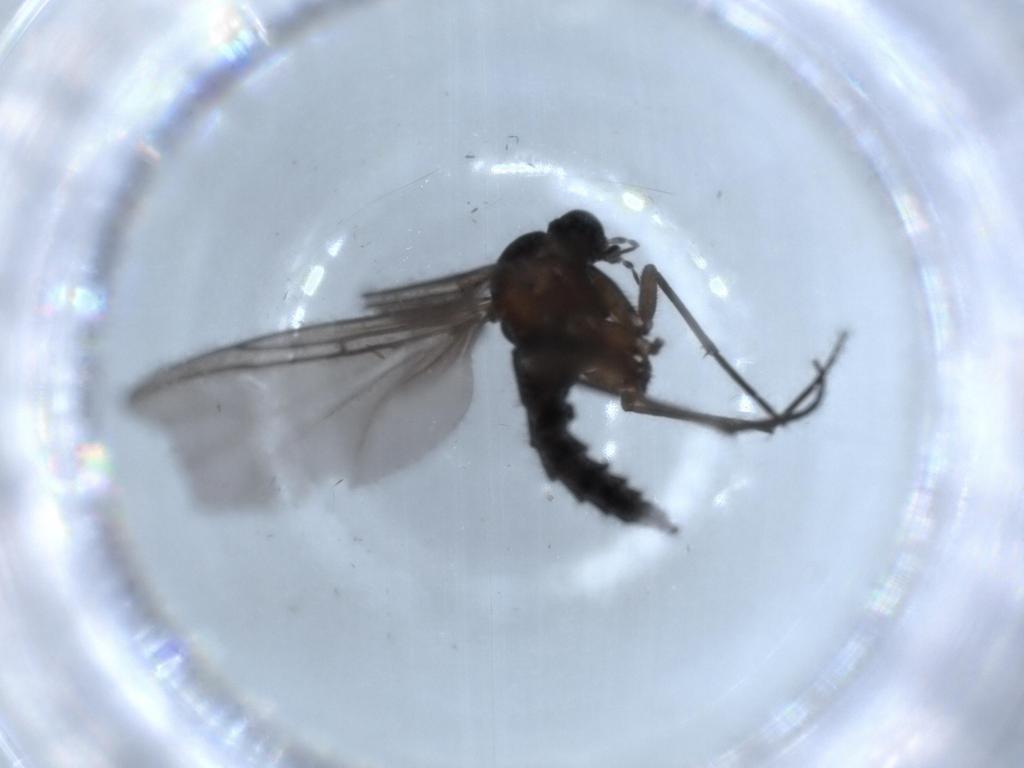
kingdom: Animalia
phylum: Arthropoda
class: Insecta
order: Diptera
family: Sciaridae
